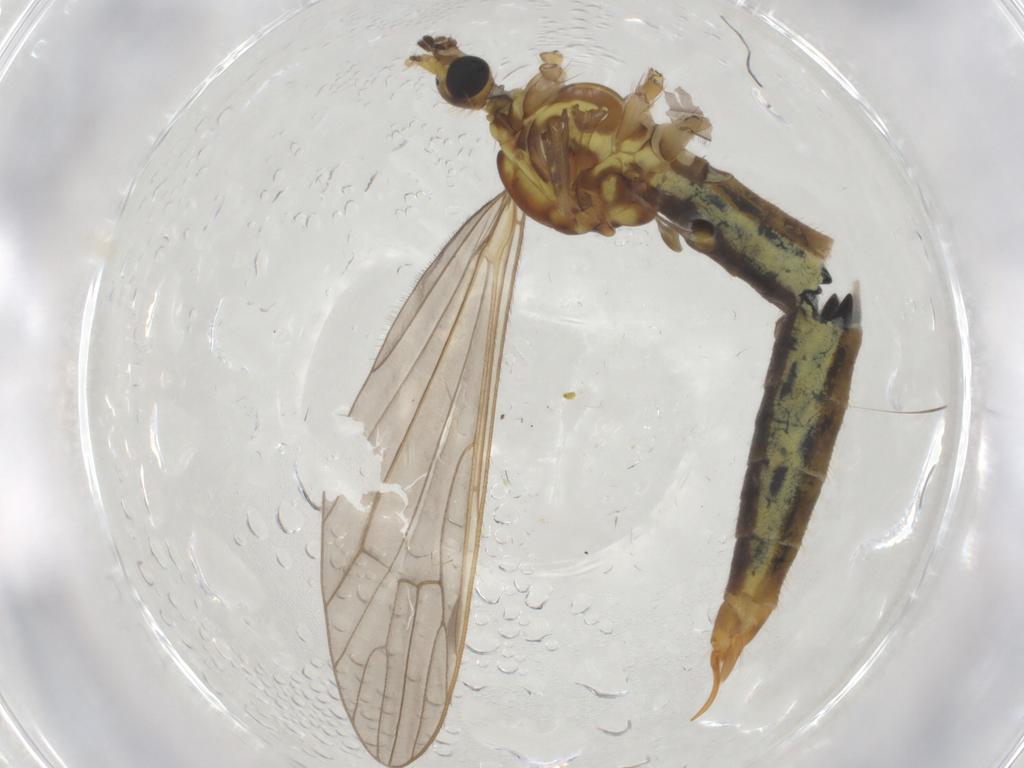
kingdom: Animalia
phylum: Arthropoda
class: Insecta
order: Diptera
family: Limoniidae
